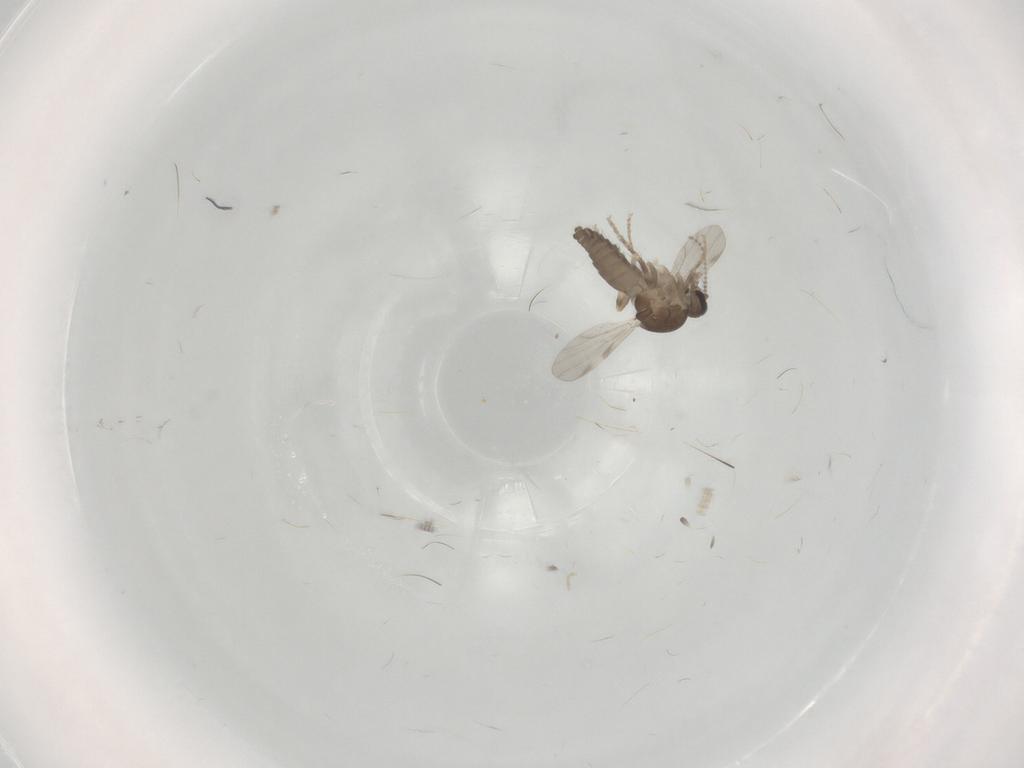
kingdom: Animalia
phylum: Arthropoda
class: Insecta
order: Diptera
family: Ceratopogonidae
